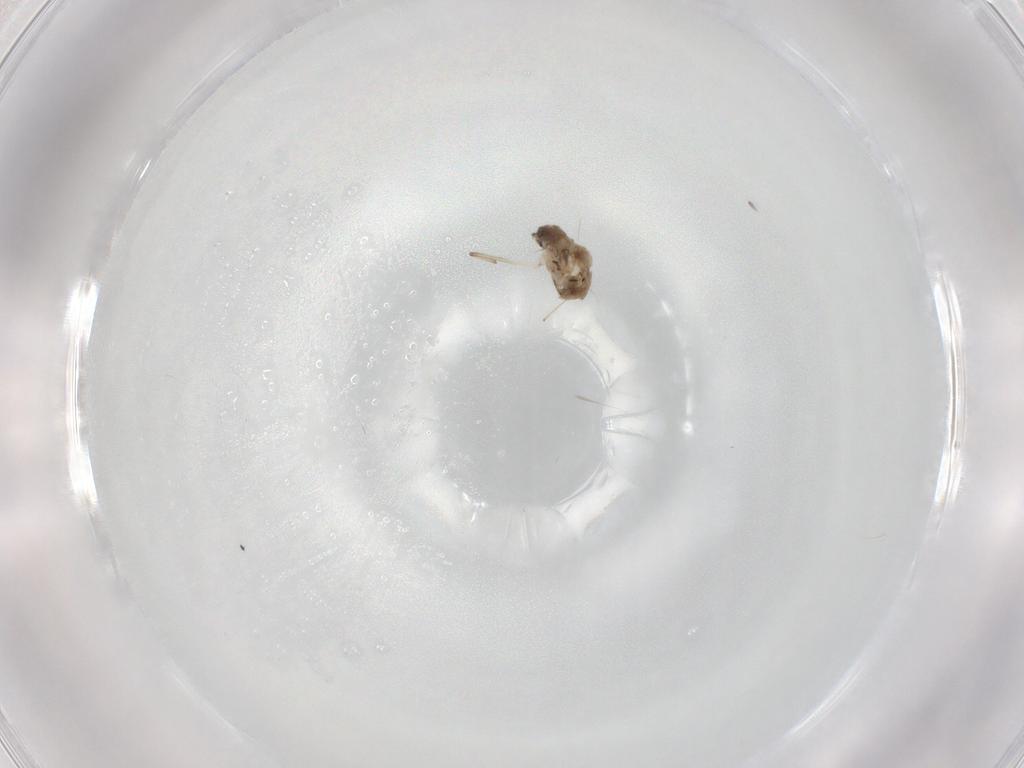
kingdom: Animalia
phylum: Arthropoda
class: Insecta
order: Diptera
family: Chironomidae
